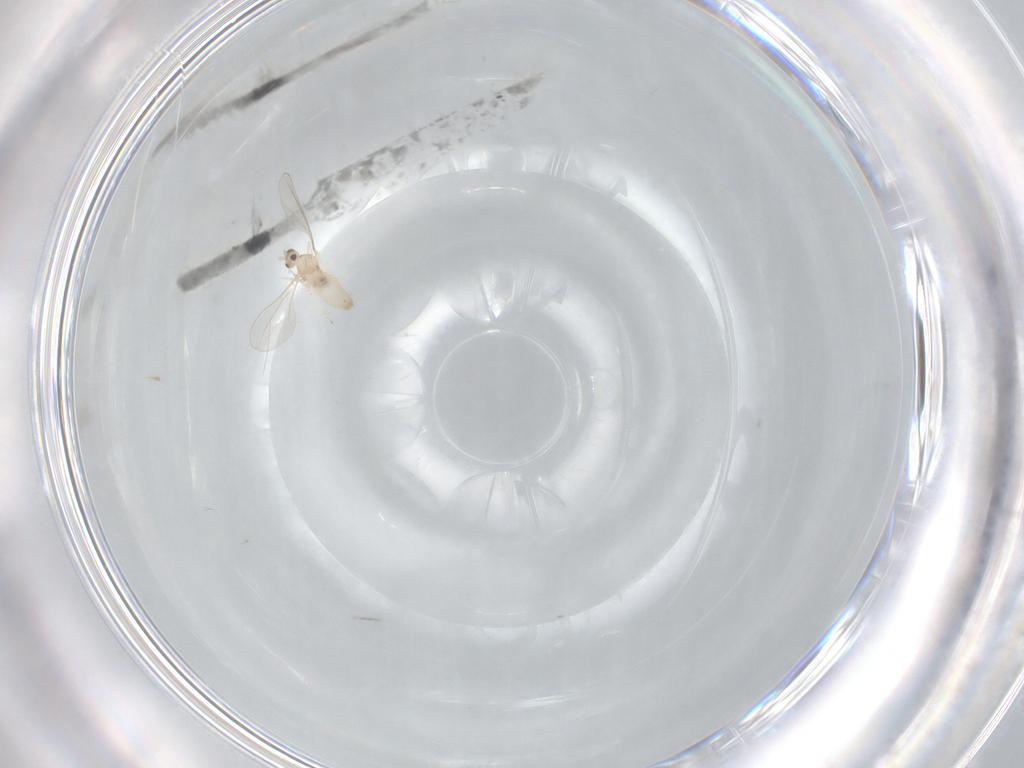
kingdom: Animalia
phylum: Arthropoda
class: Insecta
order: Diptera
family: Cecidomyiidae
